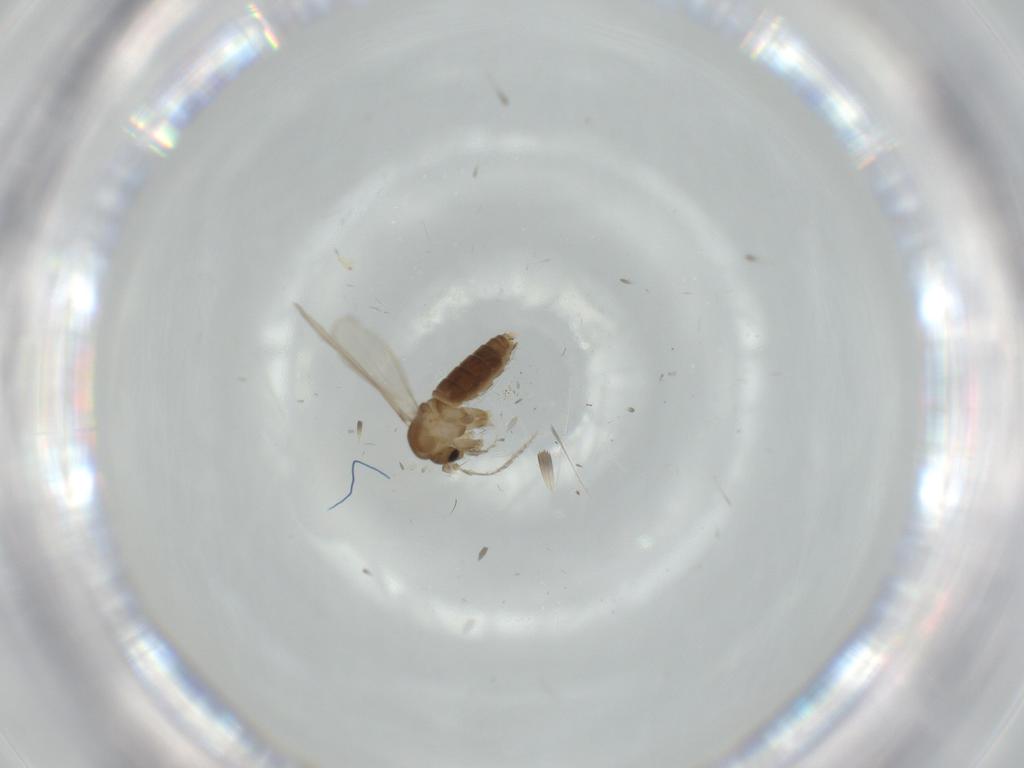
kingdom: Animalia
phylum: Arthropoda
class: Insecta
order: Diptera
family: Psychodidae
